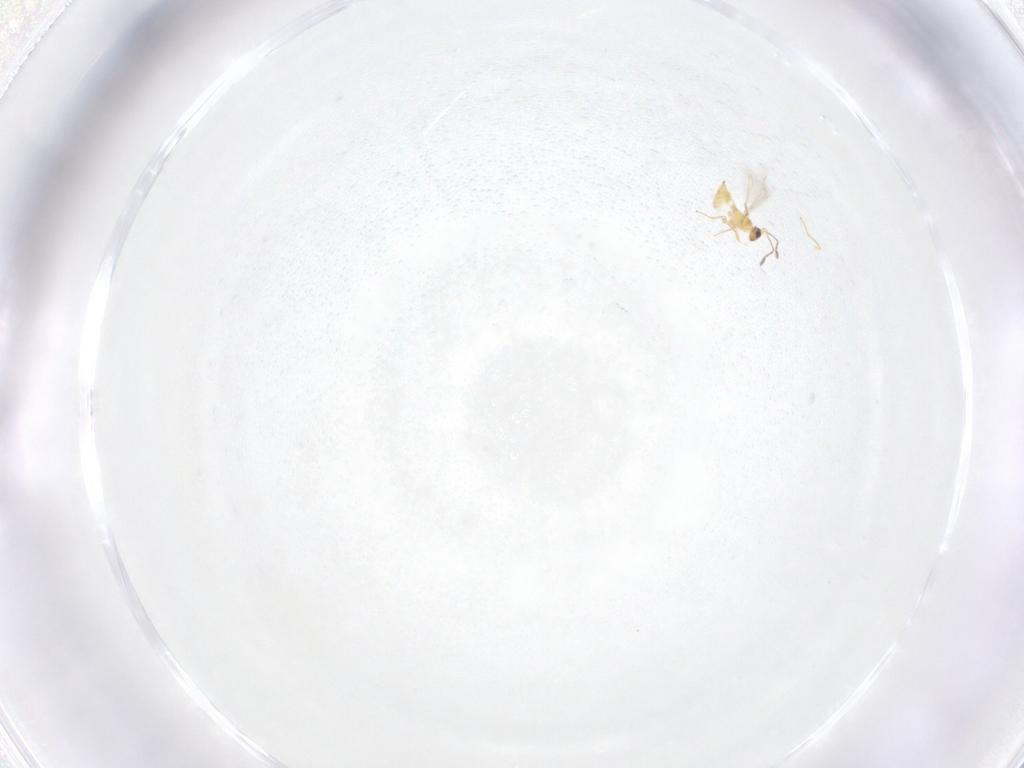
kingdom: Animalia
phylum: Arthropoda
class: Insecta
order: Hymenoptera
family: Mymaridae
